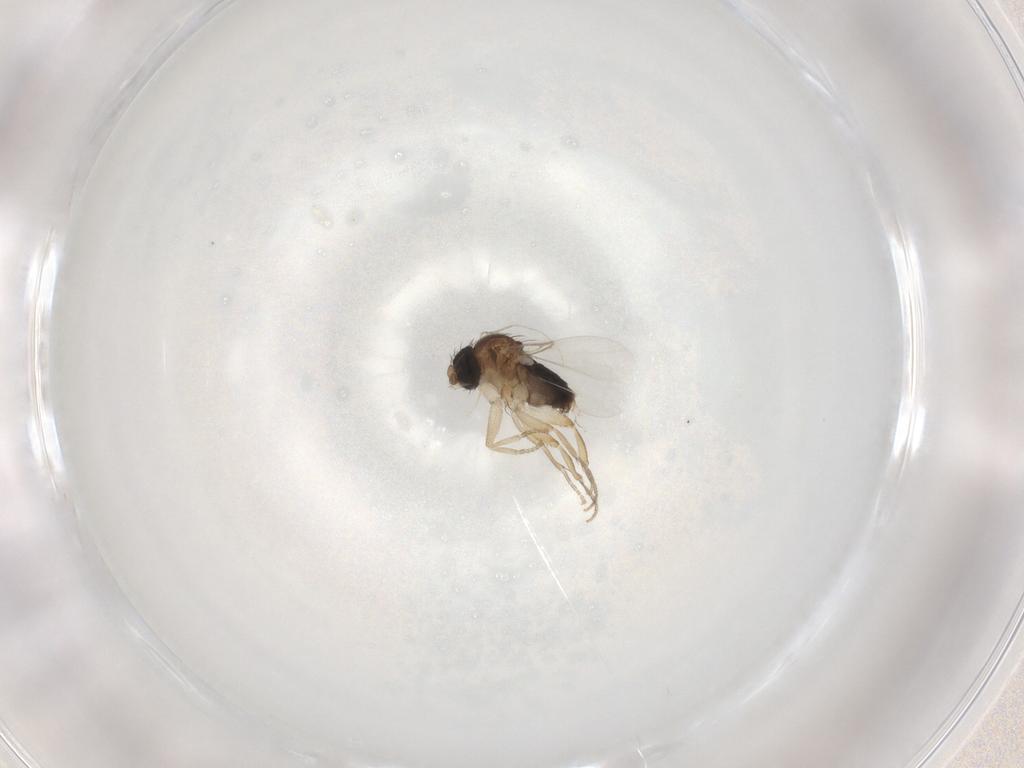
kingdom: Animalia
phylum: Arthropoda
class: Insecta
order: Diptera
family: Phoridae
